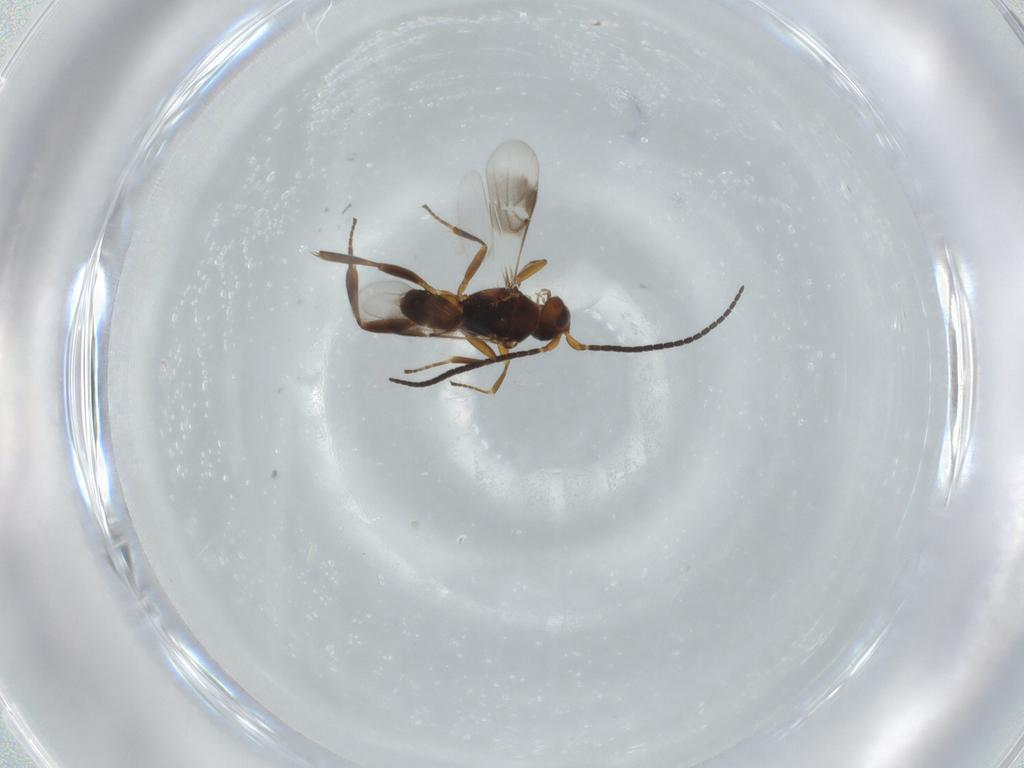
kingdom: Animalia
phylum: Arthropoda
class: Insecta
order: Hymenoptera
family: Braconidae
